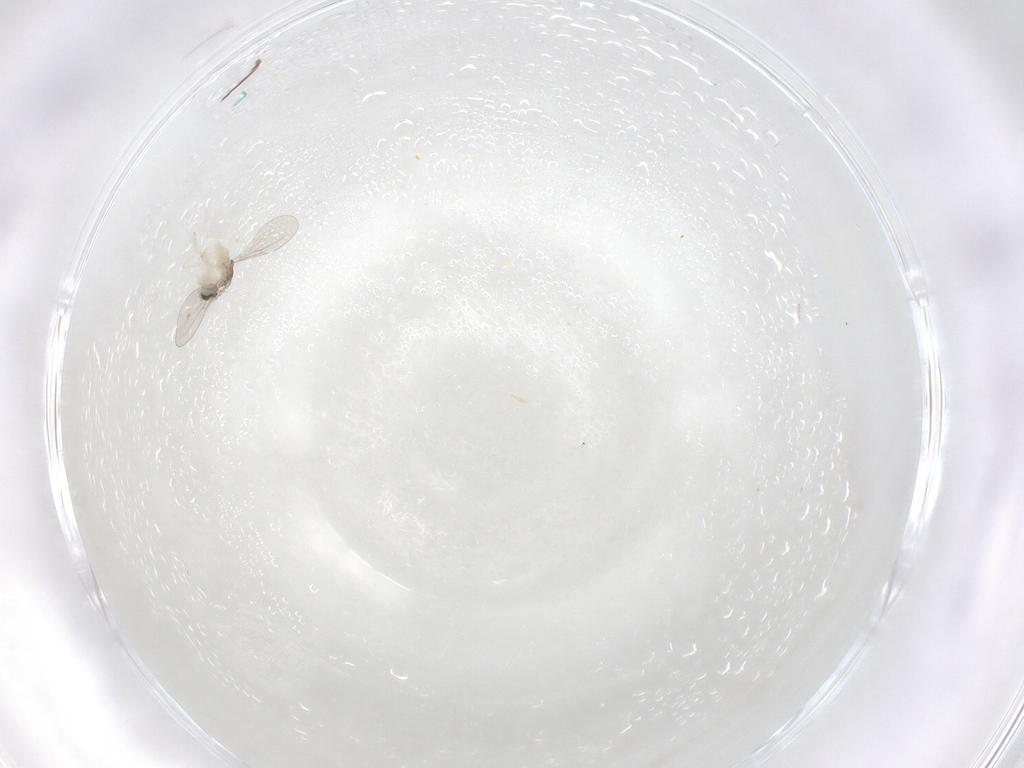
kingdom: Animalia
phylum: Arthropoda
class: Insecta
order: Diptera
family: Cecidomyiidae
